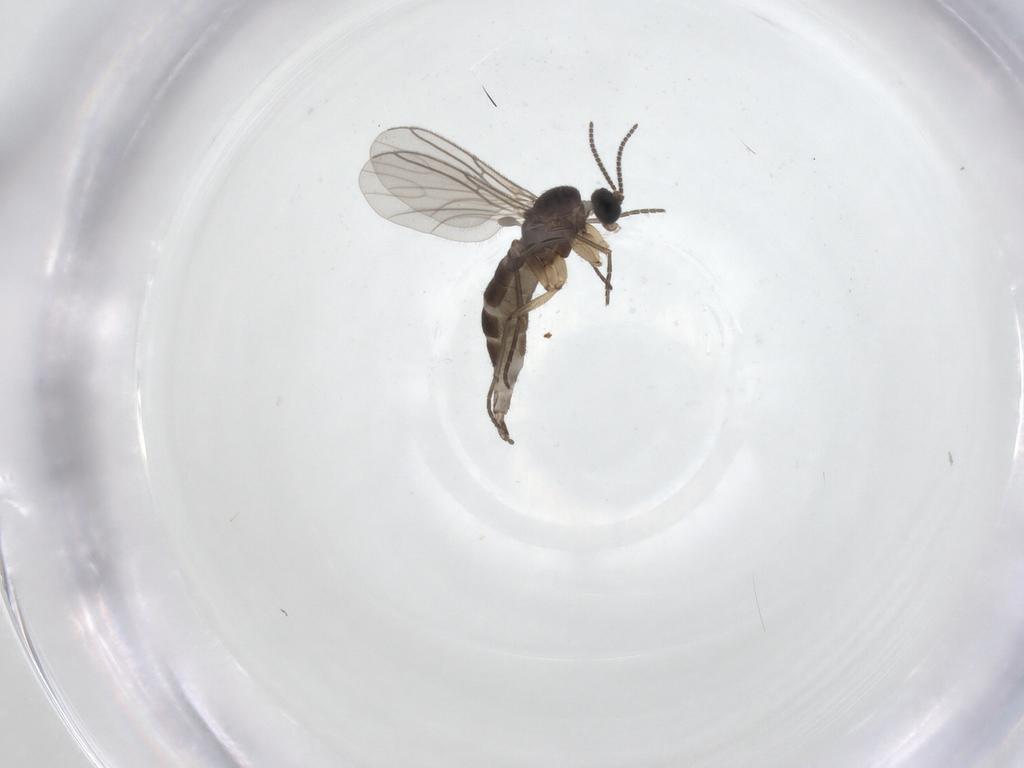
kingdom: Animalia
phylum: Arthropoda
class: Insecta
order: Diptera
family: Sciaridae
